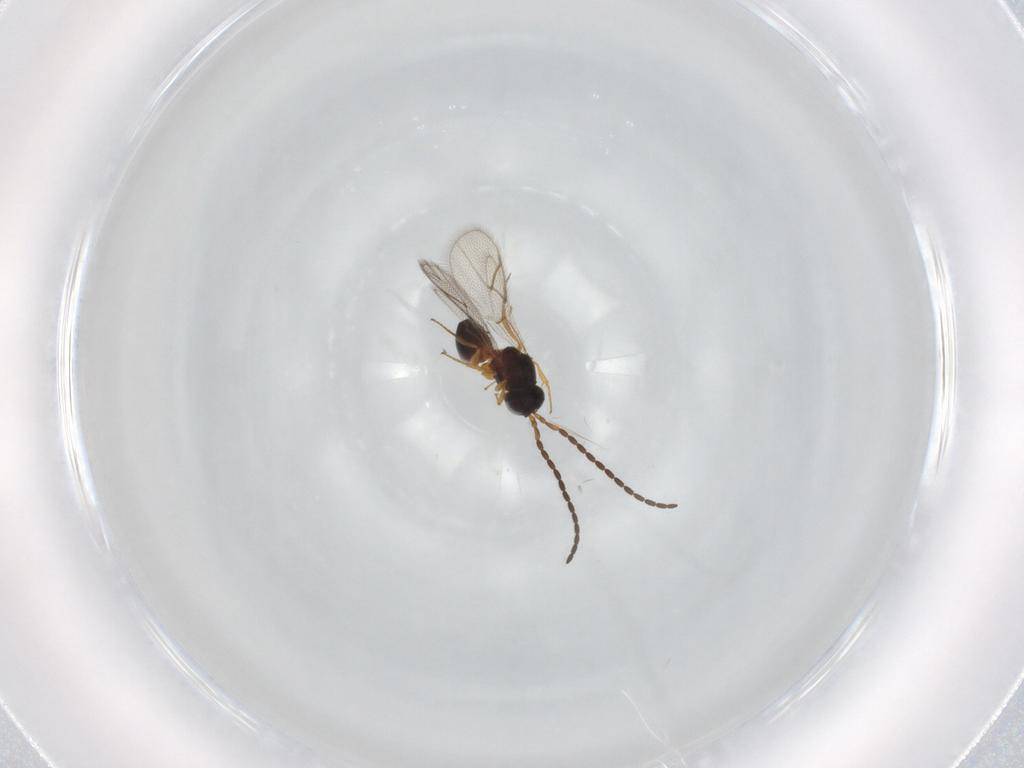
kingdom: Animalia
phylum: Arthropoda
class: Insecta
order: Hymenoptera
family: Figitidae
